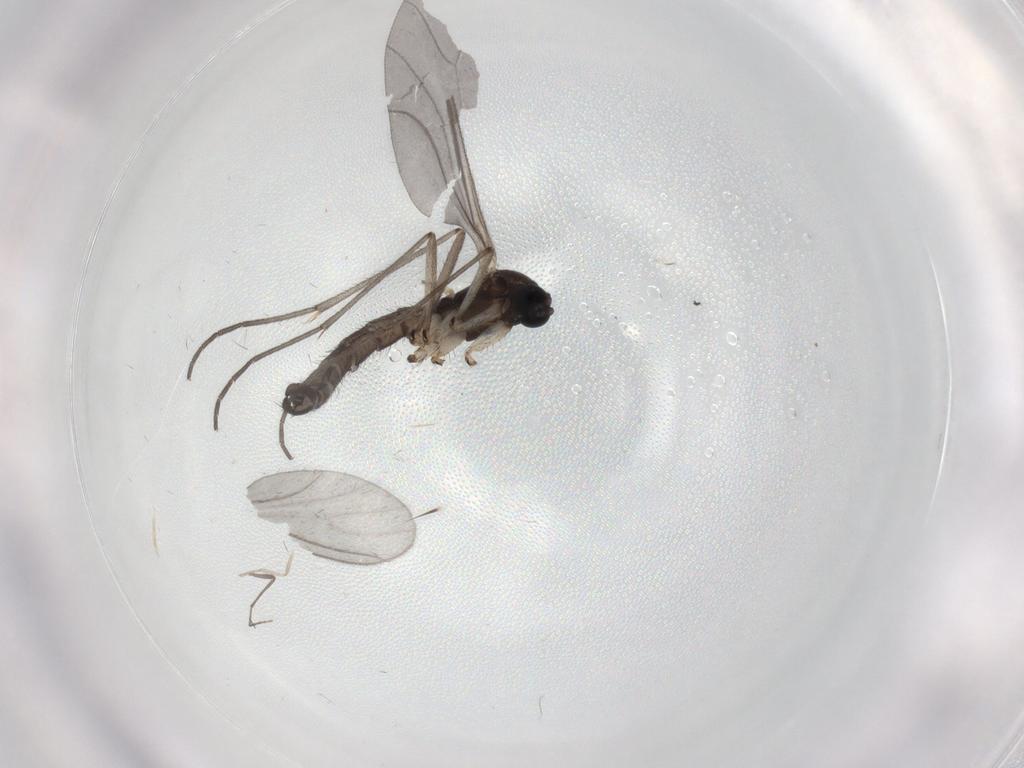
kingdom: Animalia
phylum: Arthropoda
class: Insecta
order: Diptera
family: Sciaridae
